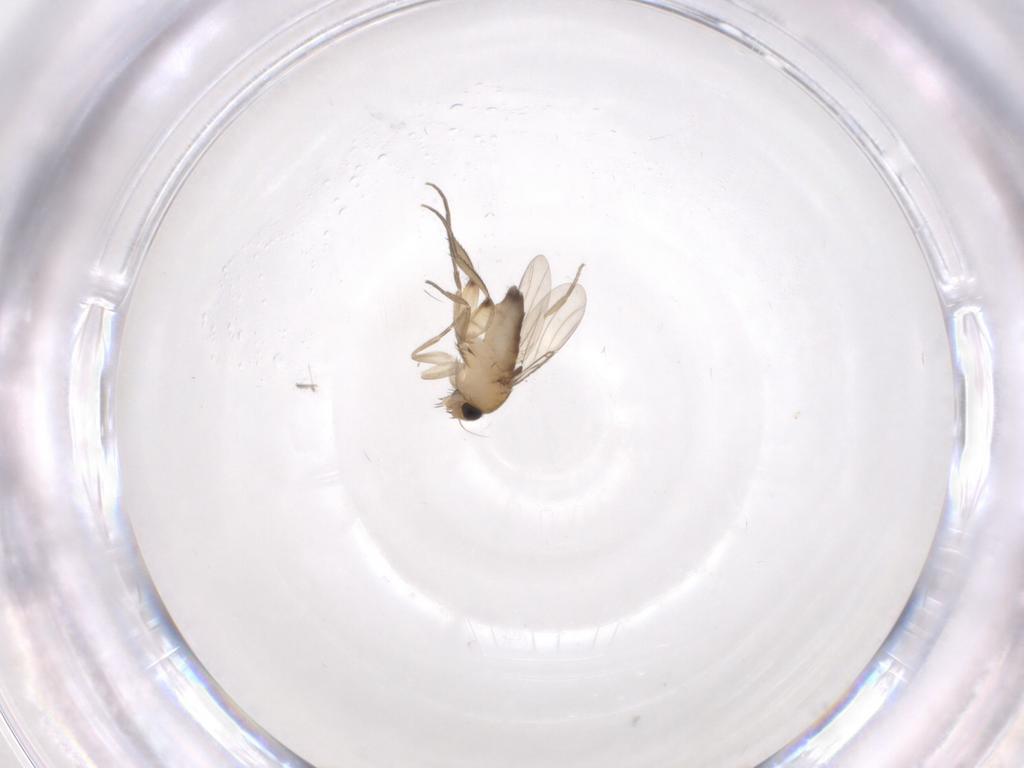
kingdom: Animalia
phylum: Arthropoda
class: Insecta
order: Diptera
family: Phoridae
